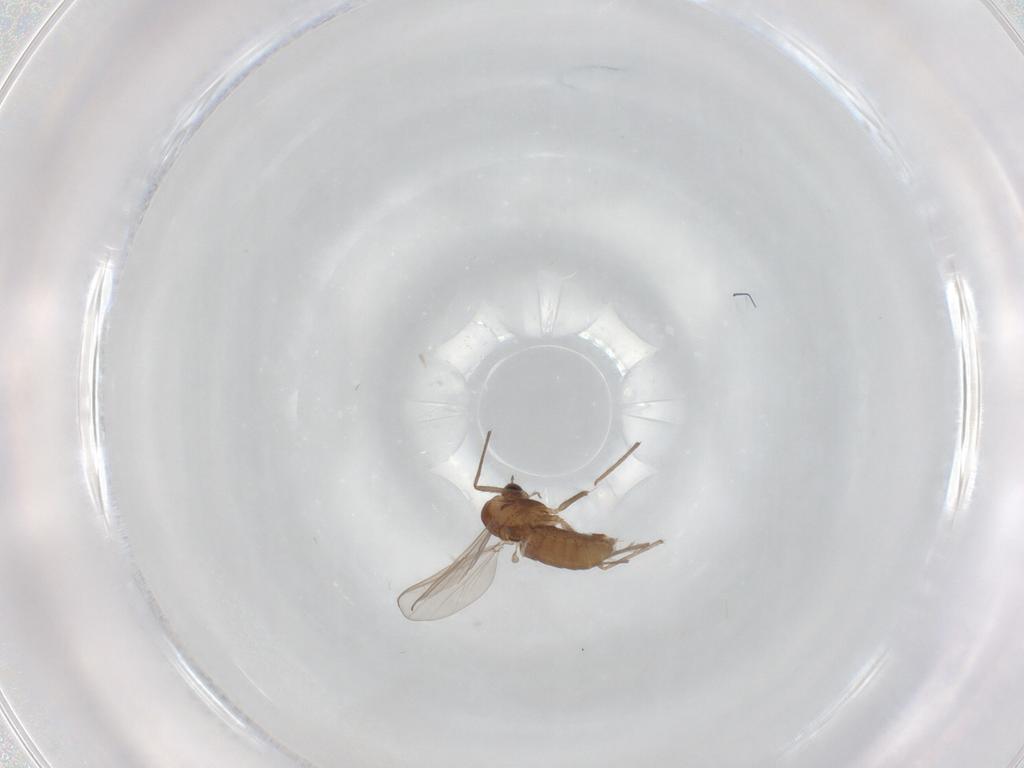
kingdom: Animalia
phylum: Arthropoda
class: Insecta
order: Diptera
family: Chironomidae
